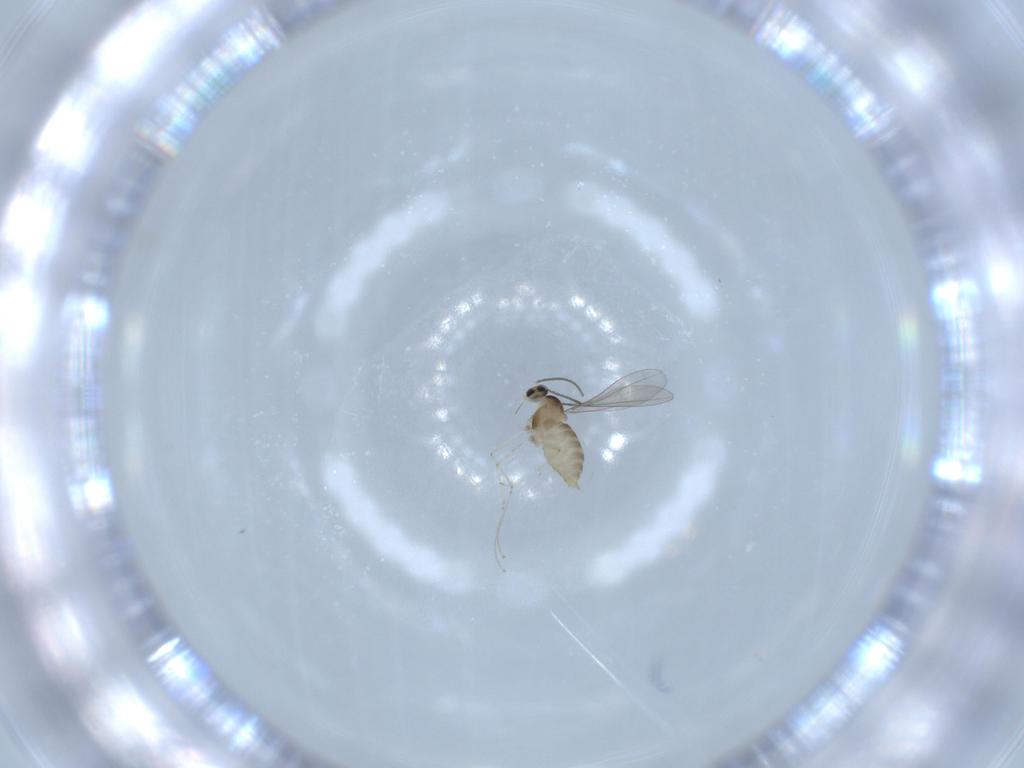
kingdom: Animalia
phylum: Arthropoda
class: Insecta
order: Diptera
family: Cecidomyiidae
